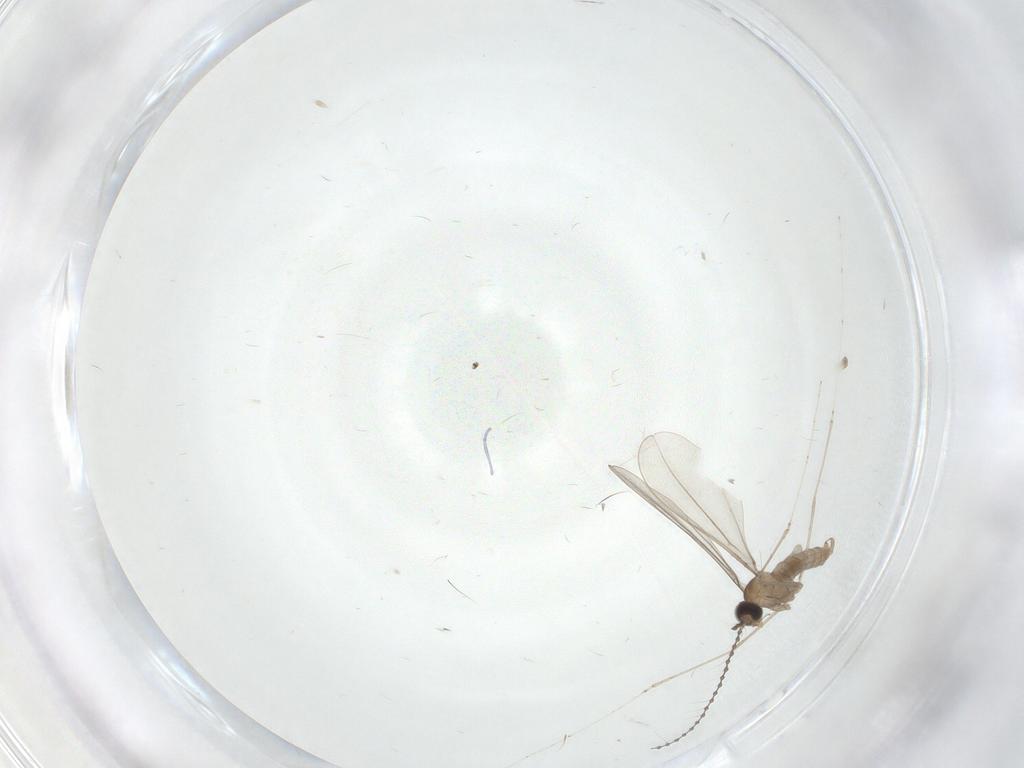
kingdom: Animalia
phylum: Arthropoda
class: Insecta
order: Diptera
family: Cecidomyiidae
